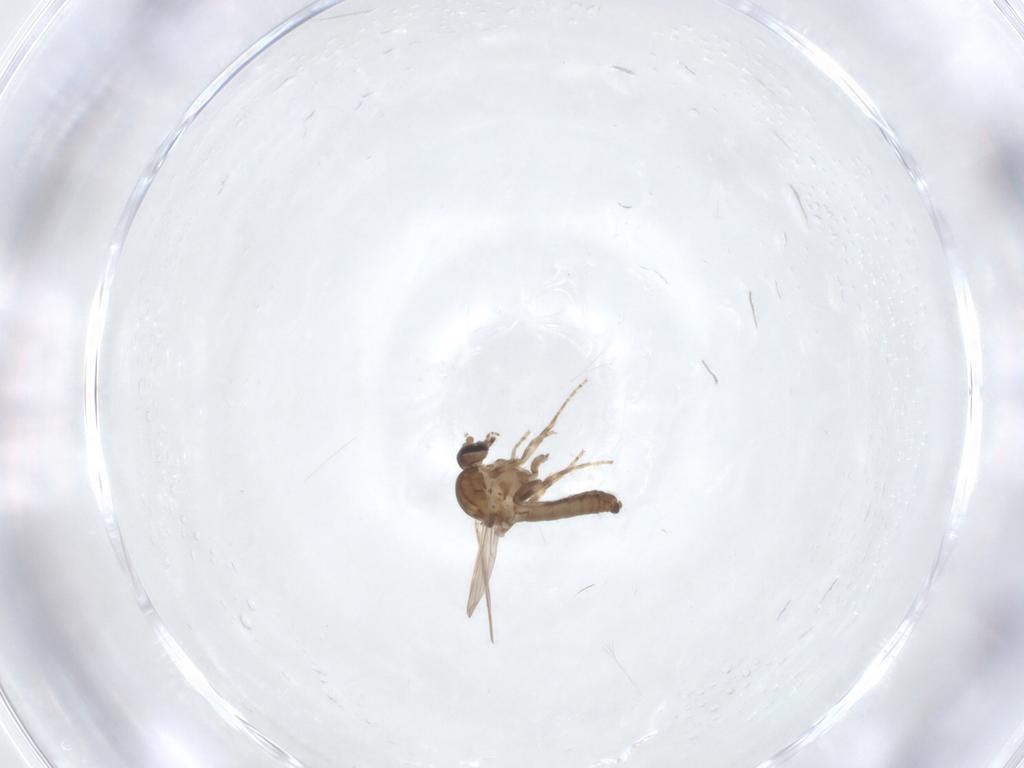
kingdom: Animalia
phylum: Arthropoda
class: Insecta
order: Diptera
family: Ceratopogonidae
